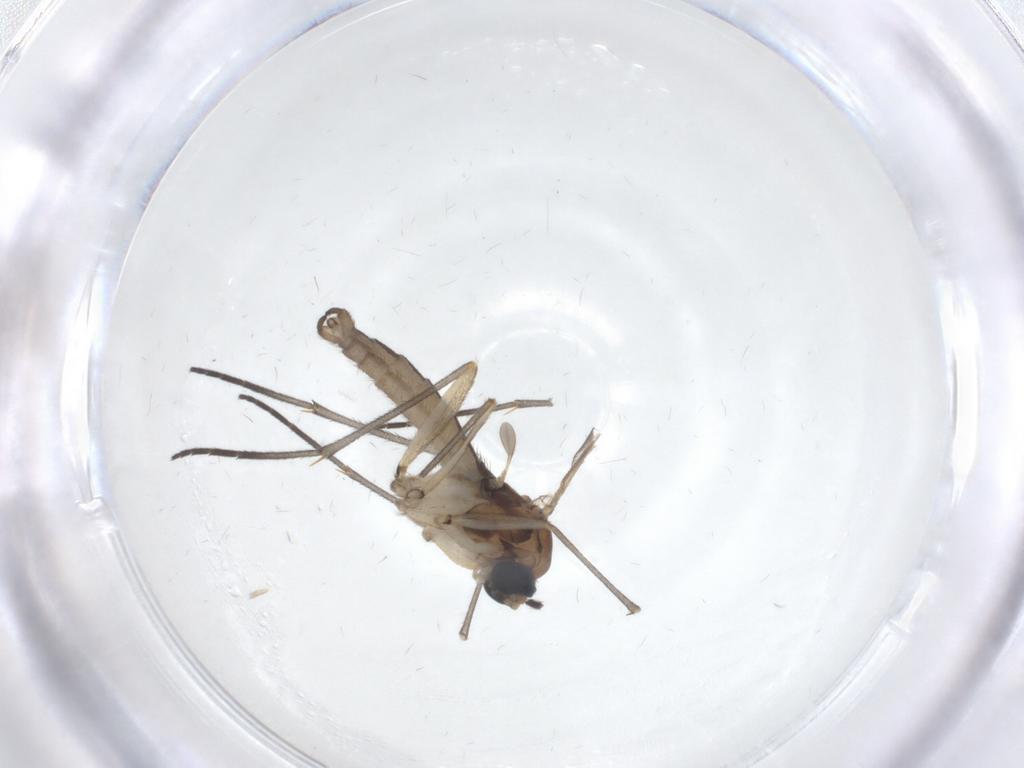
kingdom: Animalia
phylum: Arthropoda
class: Insecta
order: Diptera
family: Sciaridae
